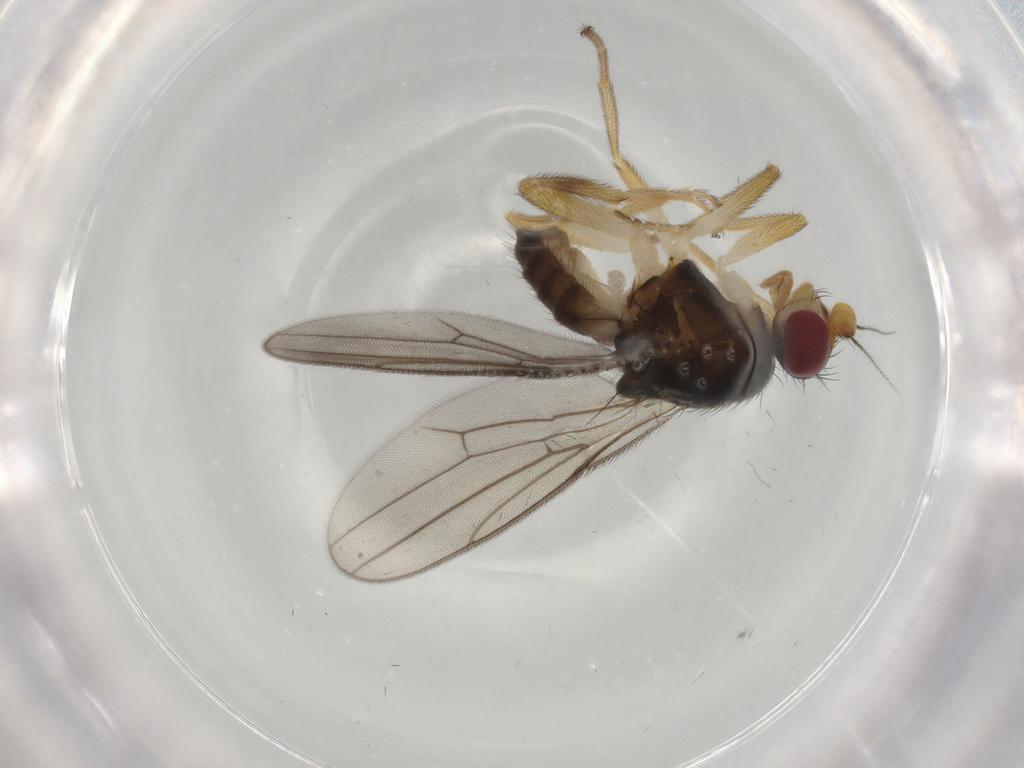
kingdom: Animalia
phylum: Arthropoda
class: Insecta
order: Diptera
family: Chloropidae
